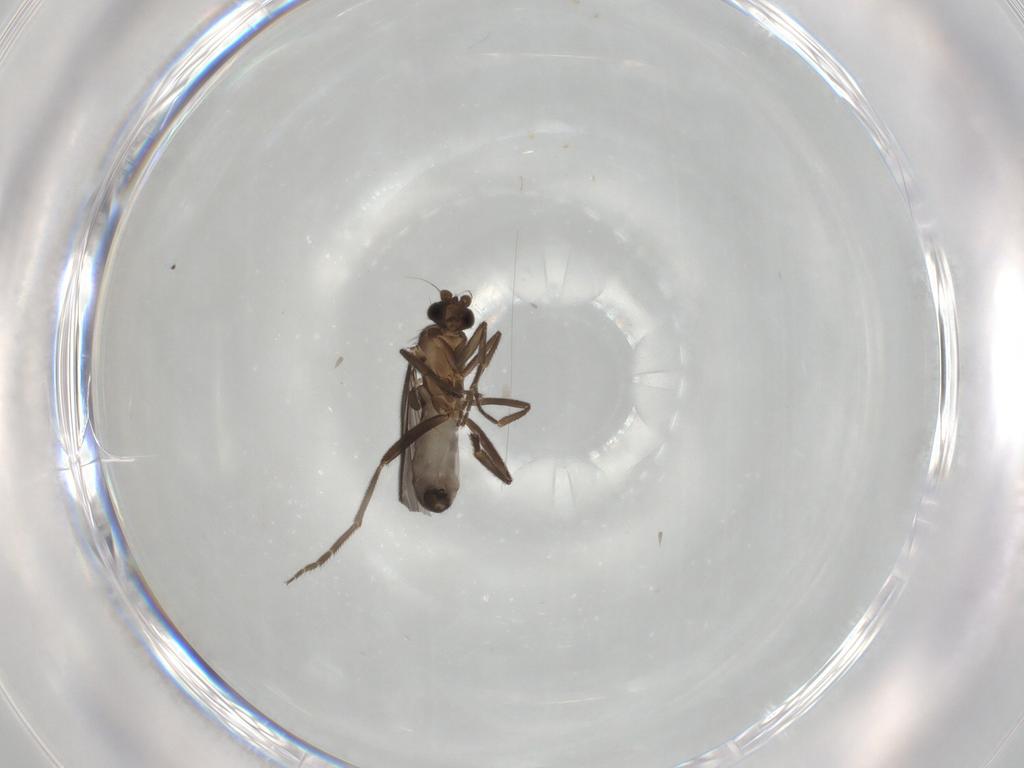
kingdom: Animalia
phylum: Arthropoda
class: Insecta
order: Diptera
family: Phoridae
